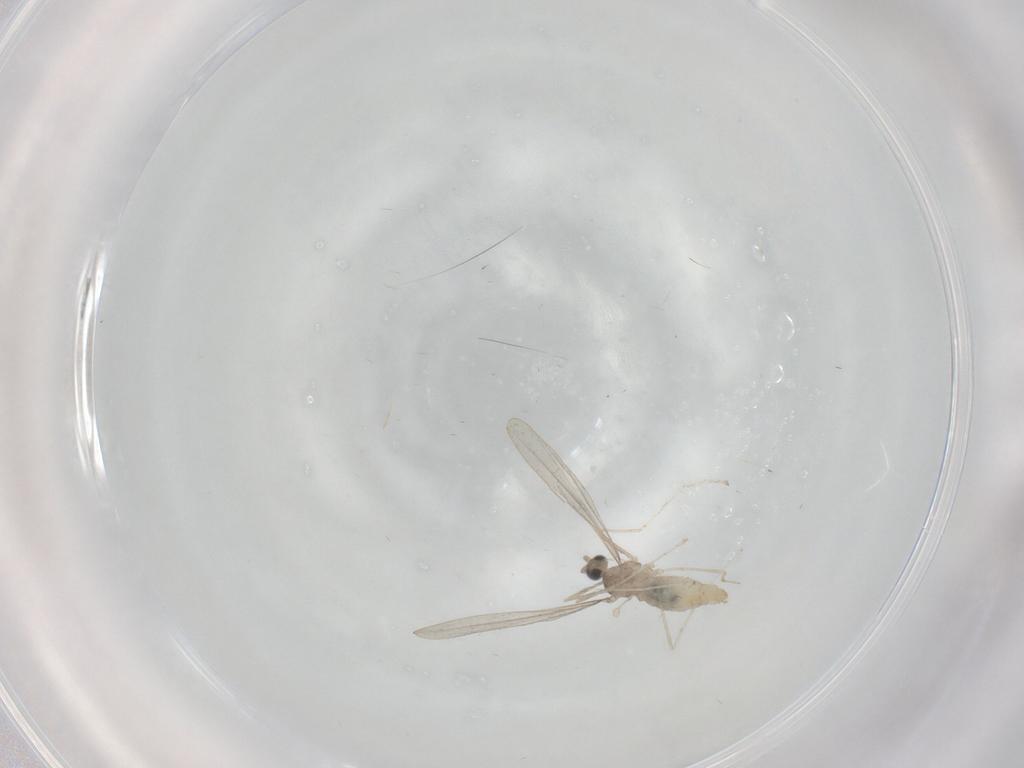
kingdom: Animalia
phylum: Arthropoda
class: Insecta
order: Diptera
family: Cecidomyiidae
